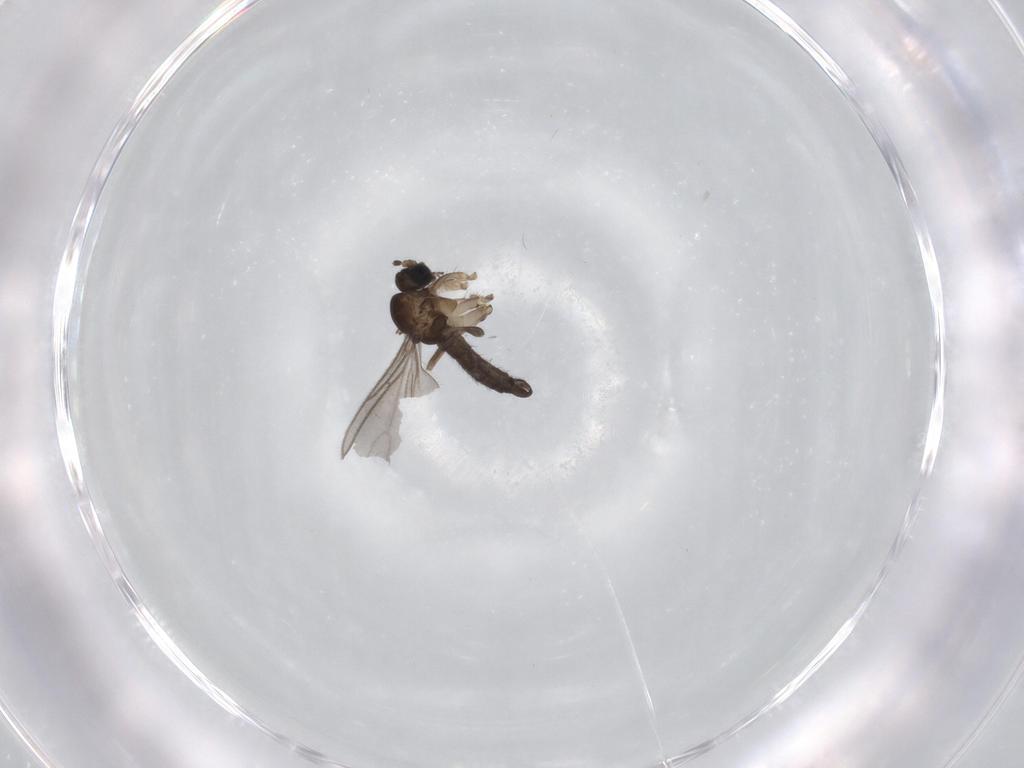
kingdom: Animalia
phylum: Arthropoda
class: Insecta
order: Diptera
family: Sciaridae
